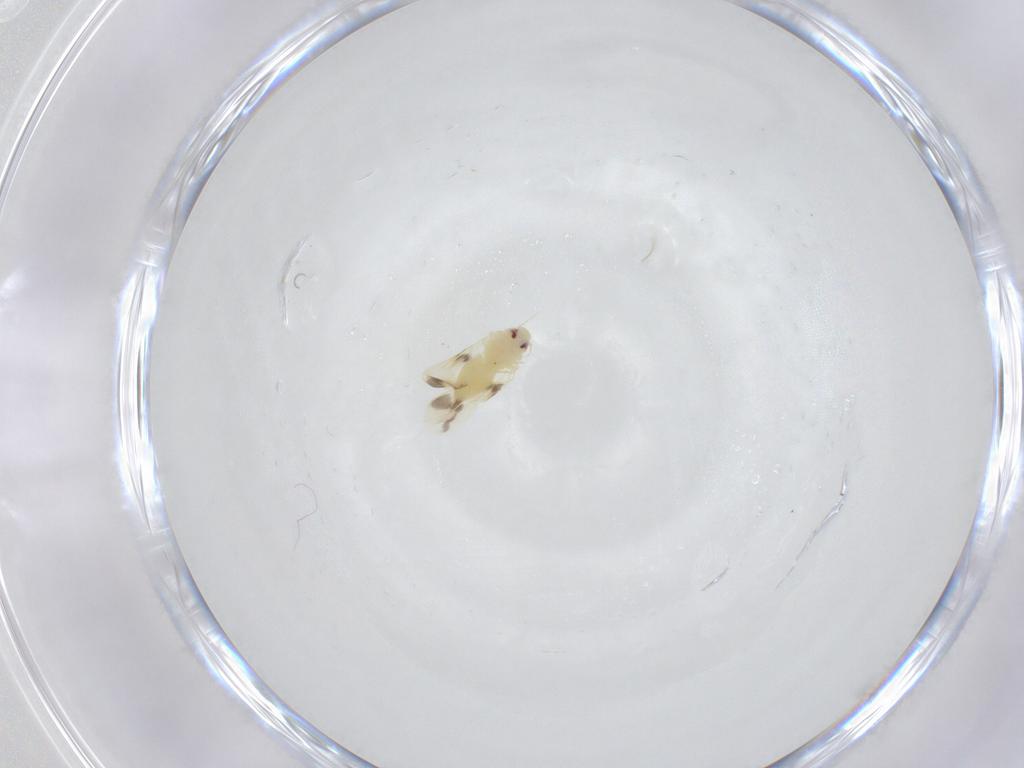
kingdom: Animalia
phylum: Arthropoda
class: Insecta
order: Hemiptera
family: Aleyrodidae
